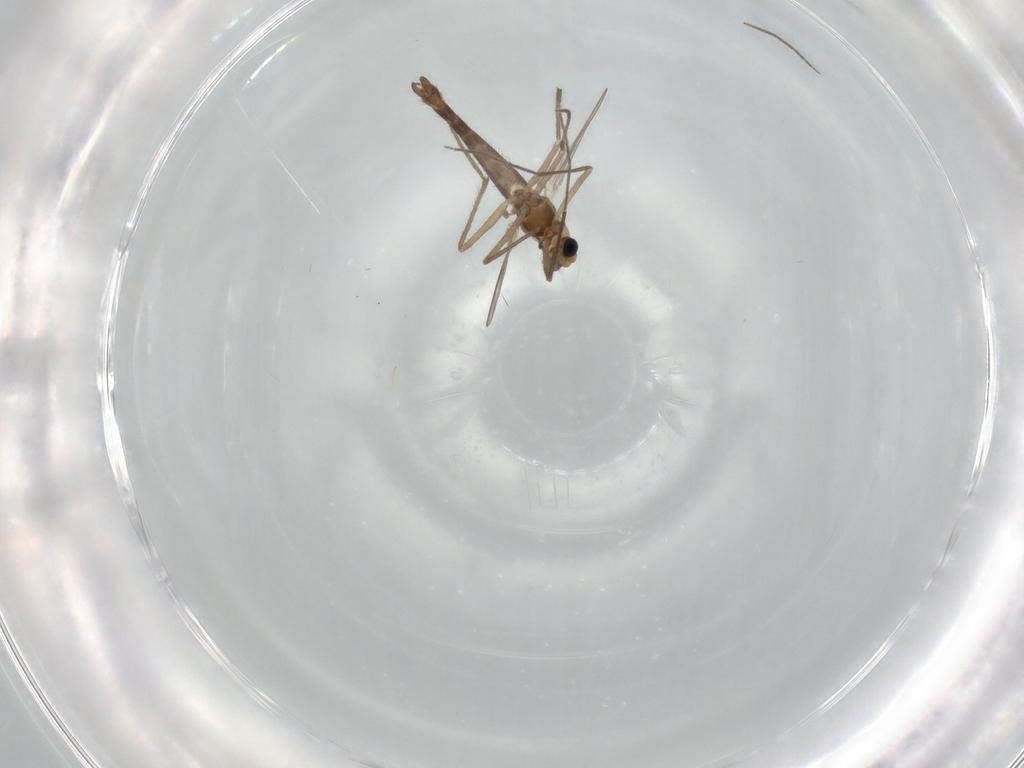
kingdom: Animalia
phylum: Arthropoda
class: Insecta
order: Diptera
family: Chironomidae
